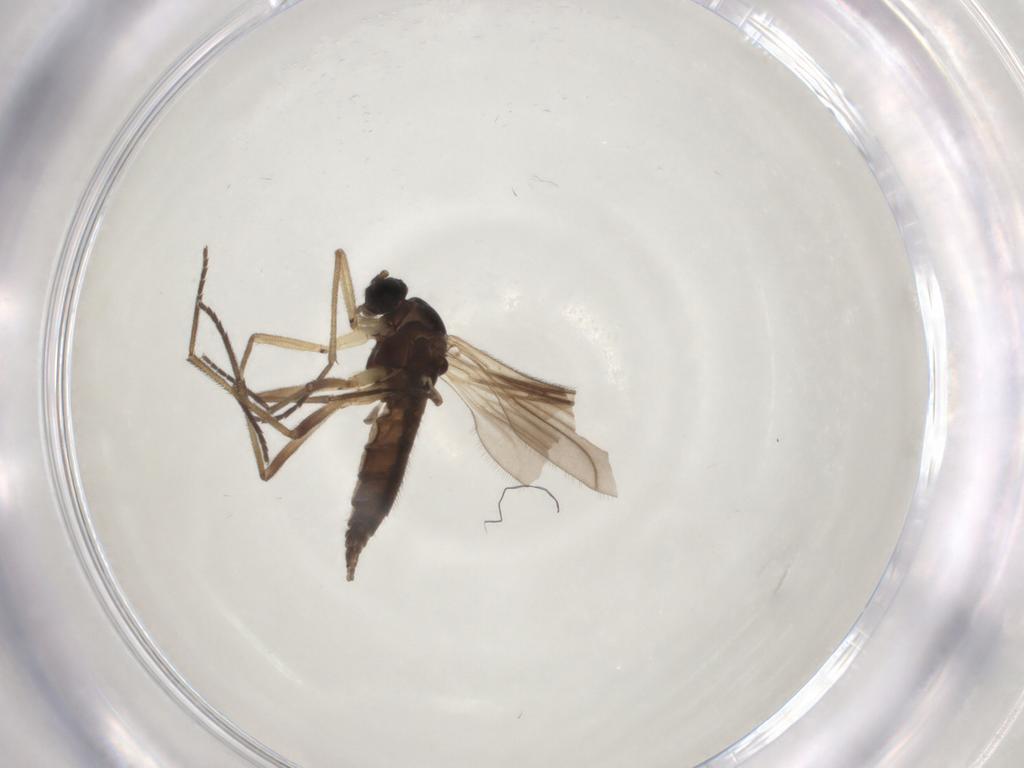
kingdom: Animalia
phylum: Arthropoda
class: Insecta
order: Diptera
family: Sciaridae
